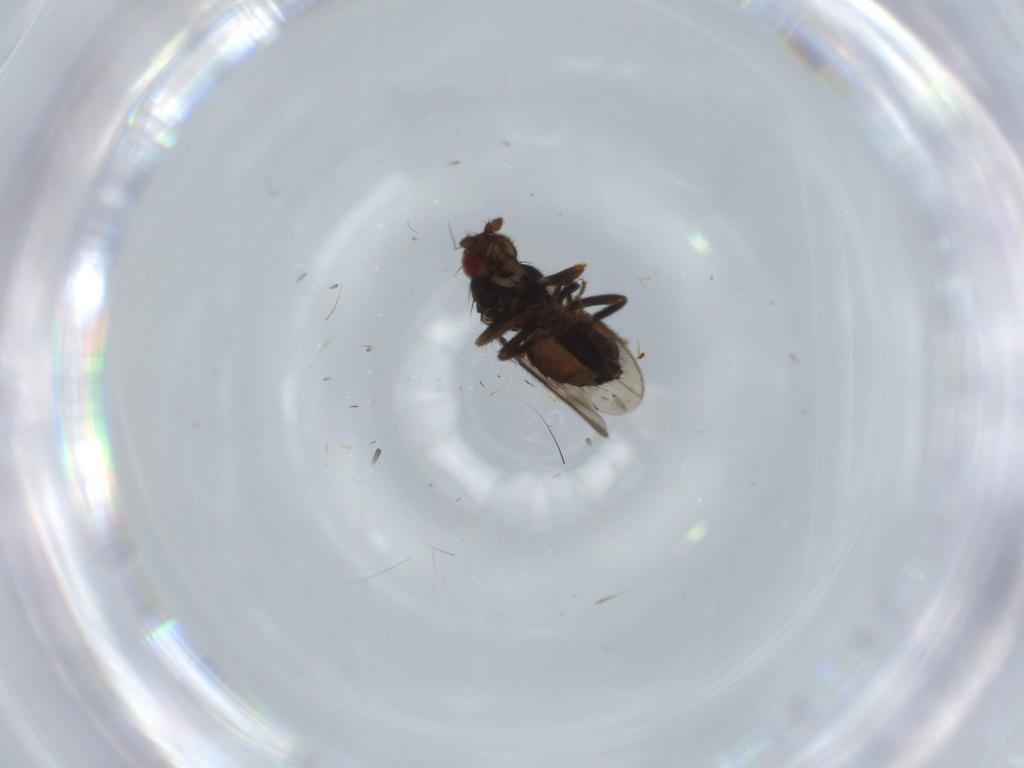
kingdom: Animalia
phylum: Arthropoda
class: Insecta
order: Diptera
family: Sphaeroceridae
